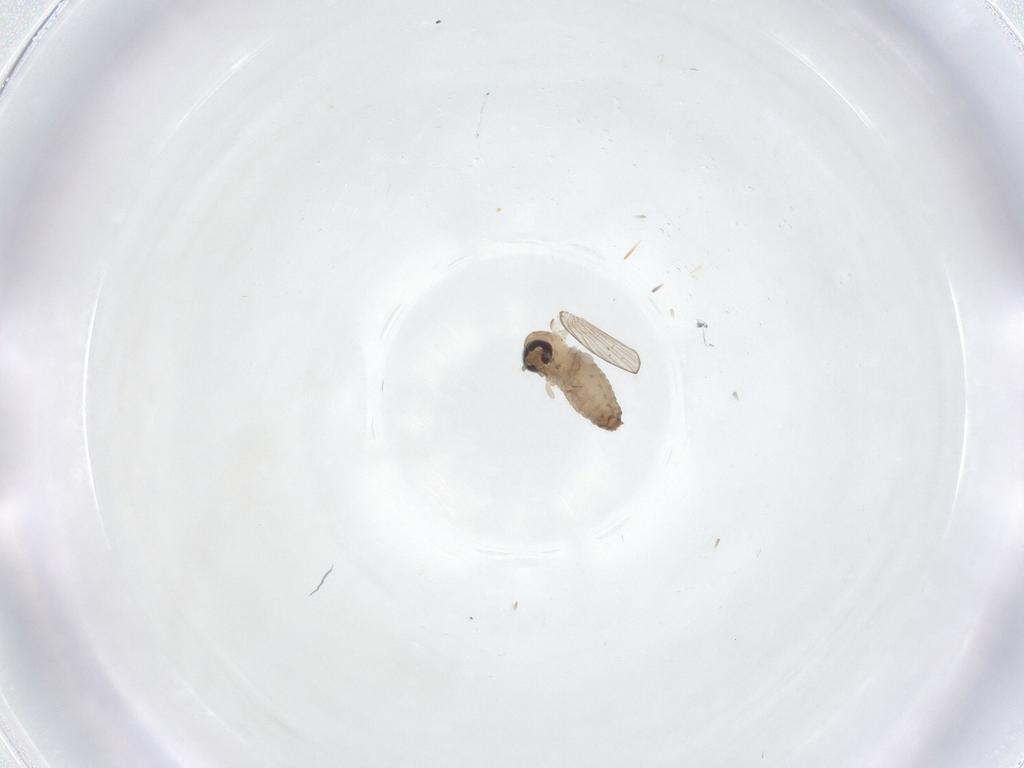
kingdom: Animalia
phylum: Arthropoda
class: Insecta
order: Diptera
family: Psychodidae
